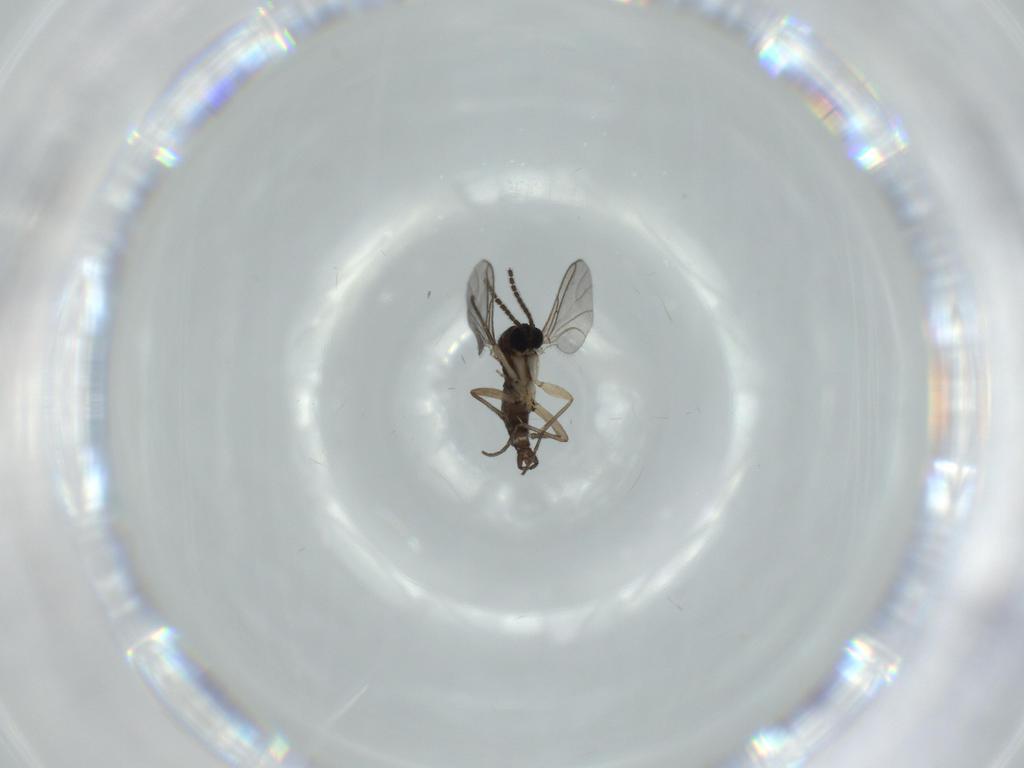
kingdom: Animalia
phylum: Arthropoda
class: Insecta
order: Diptera
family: Sciaridae
